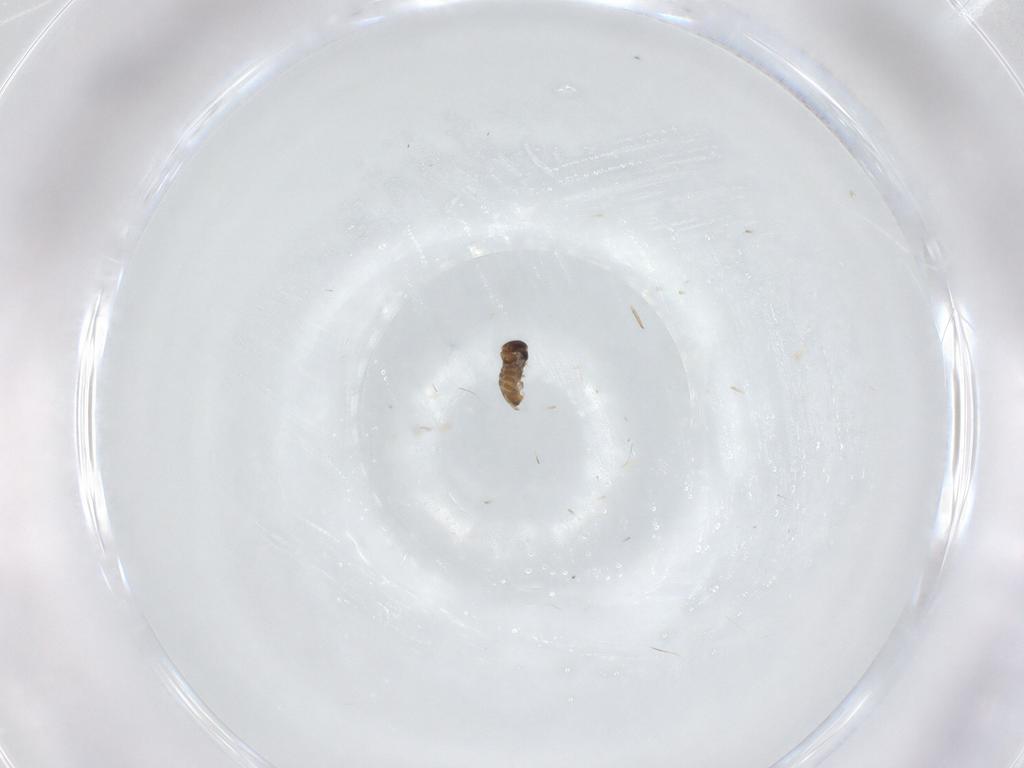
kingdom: Animalia
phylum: Arthropoda
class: Insecta
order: Diptera
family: Cecidomyiidae
